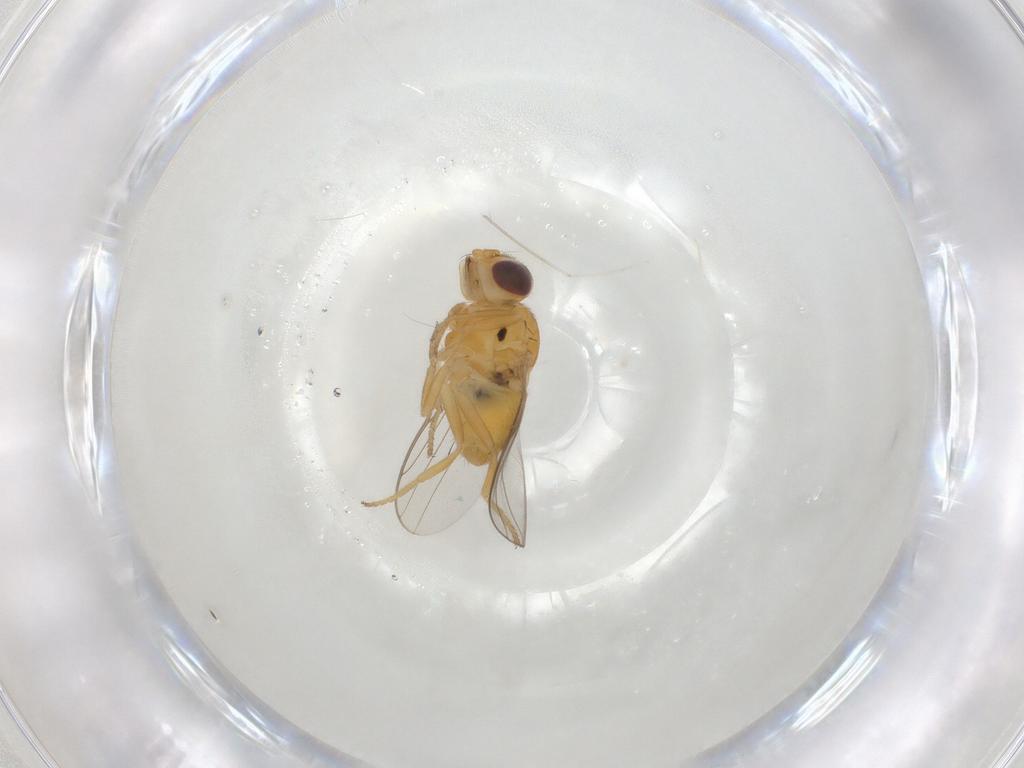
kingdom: Animalia
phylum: Arthropoda
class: Insecta
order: Diptera
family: Chloropidae
